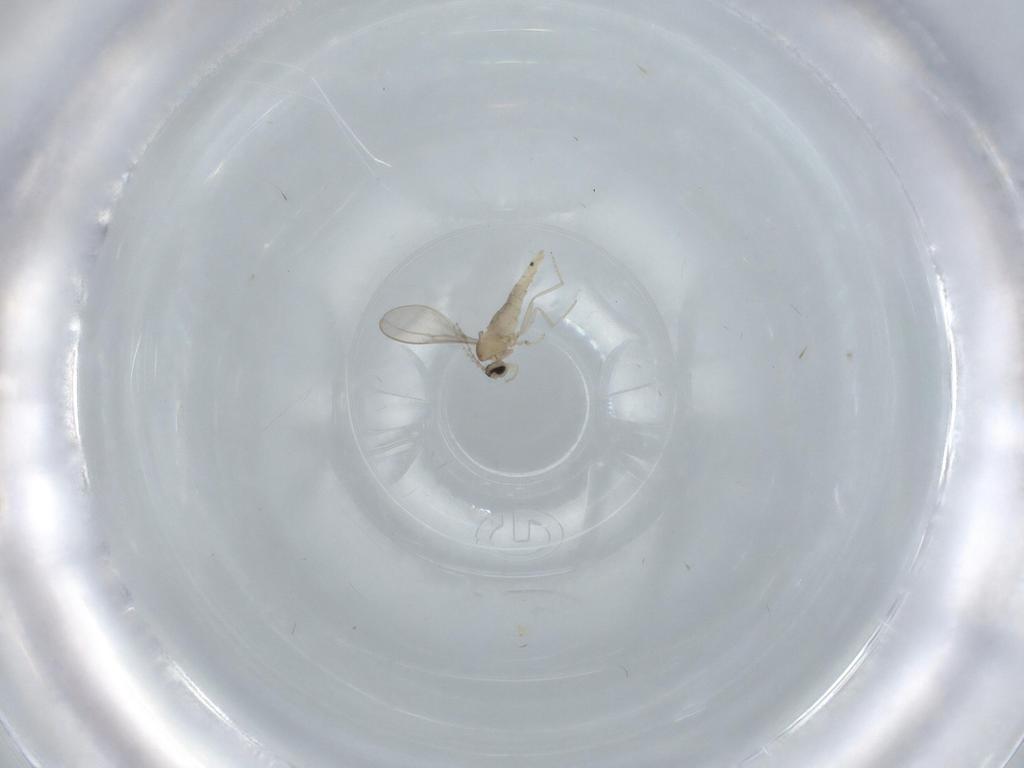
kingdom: Animalia
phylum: Arthropoda
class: Insecta
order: Diptera
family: Cecidomyiidae
